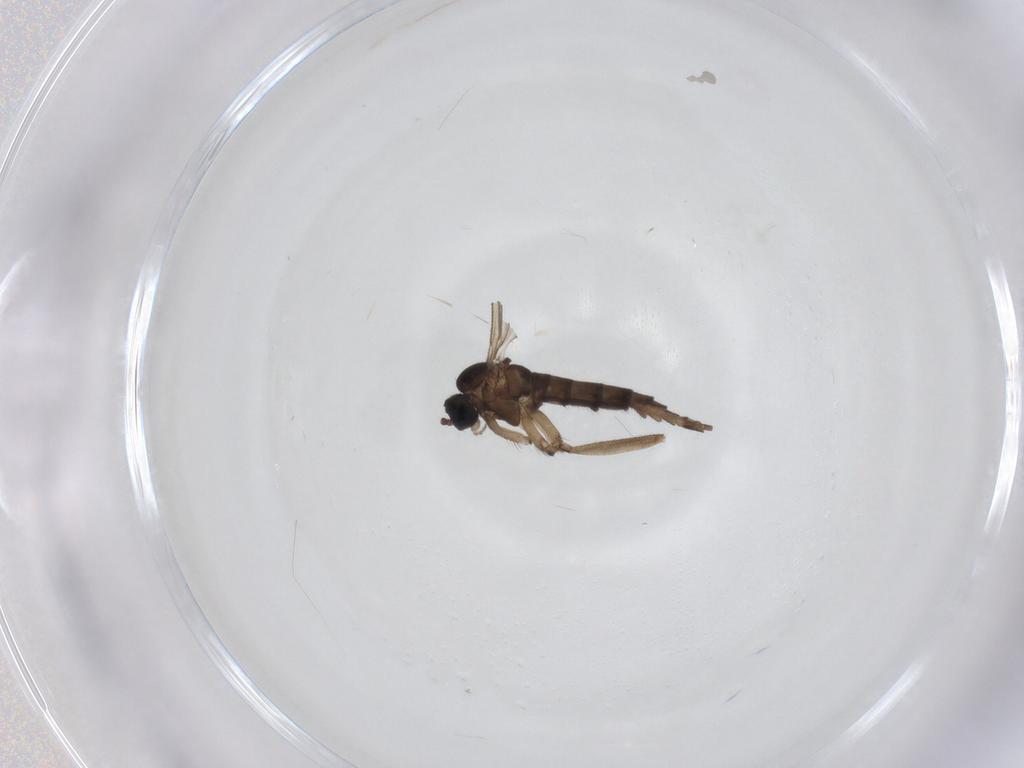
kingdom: Animalia
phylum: Arthropoda
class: Insecta
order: Diptera
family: Sciaridae
